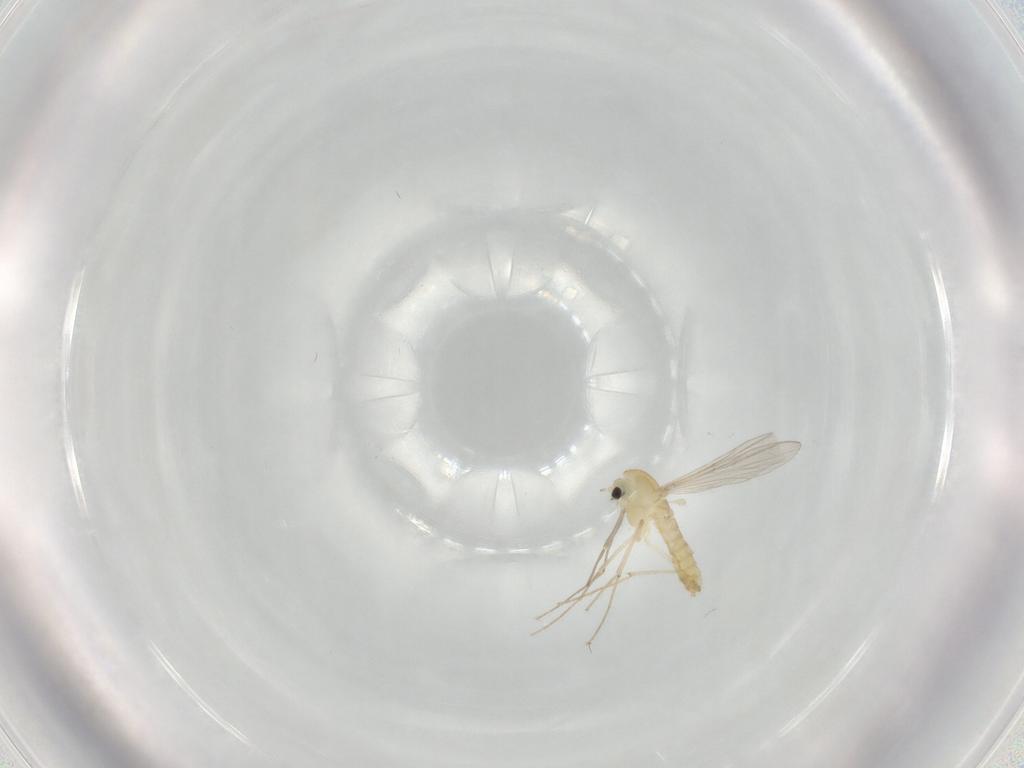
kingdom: Animalia
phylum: Arthropoda
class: Insecta
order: Diptera
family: Chironomidae
